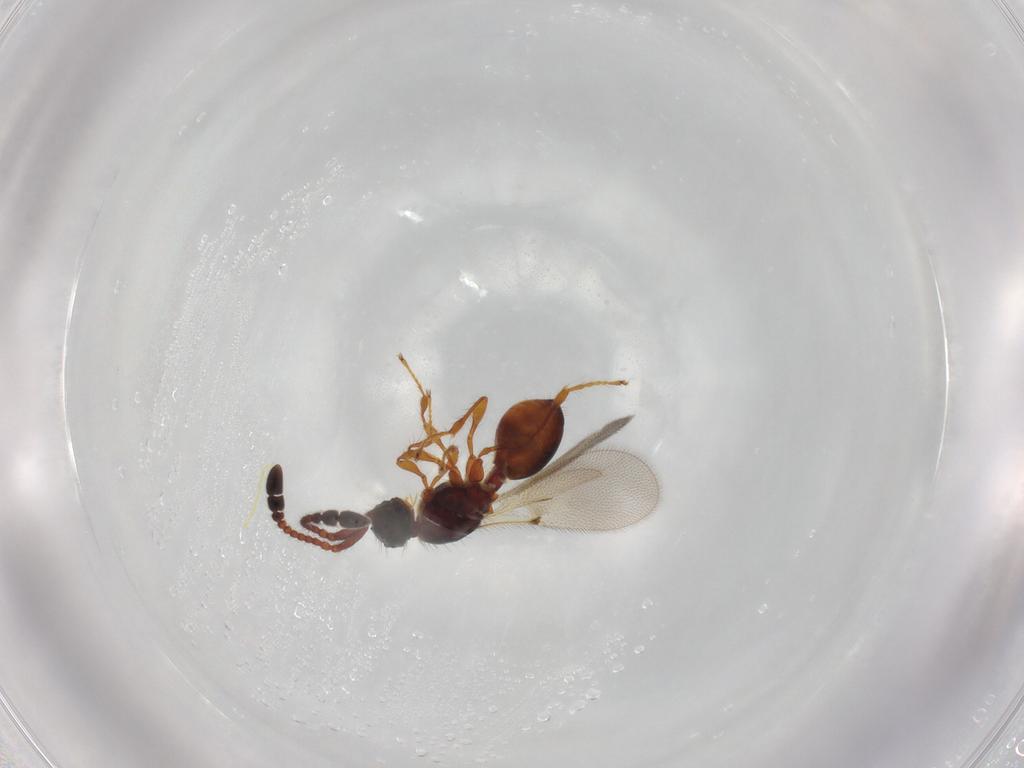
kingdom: Animalia
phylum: Arthropoda
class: Insecta
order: Hymenoptera
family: Diapriidae
